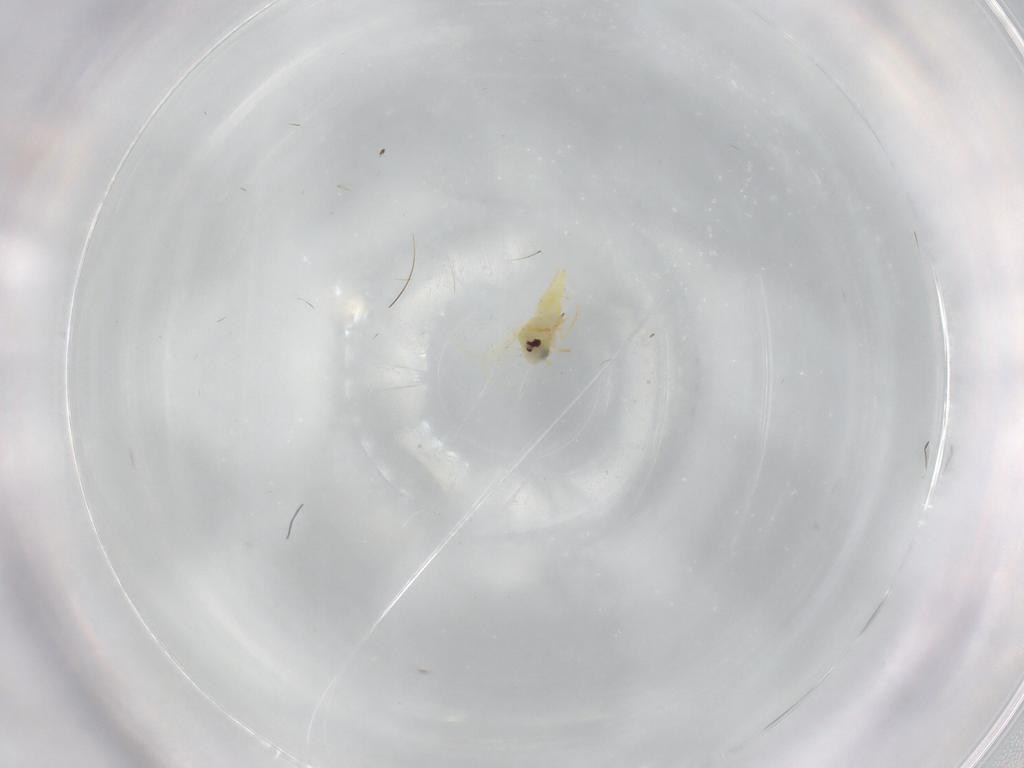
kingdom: Animalia
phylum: Arthropoda
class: Insecta
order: Hemiptera
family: Aleyrodidae
